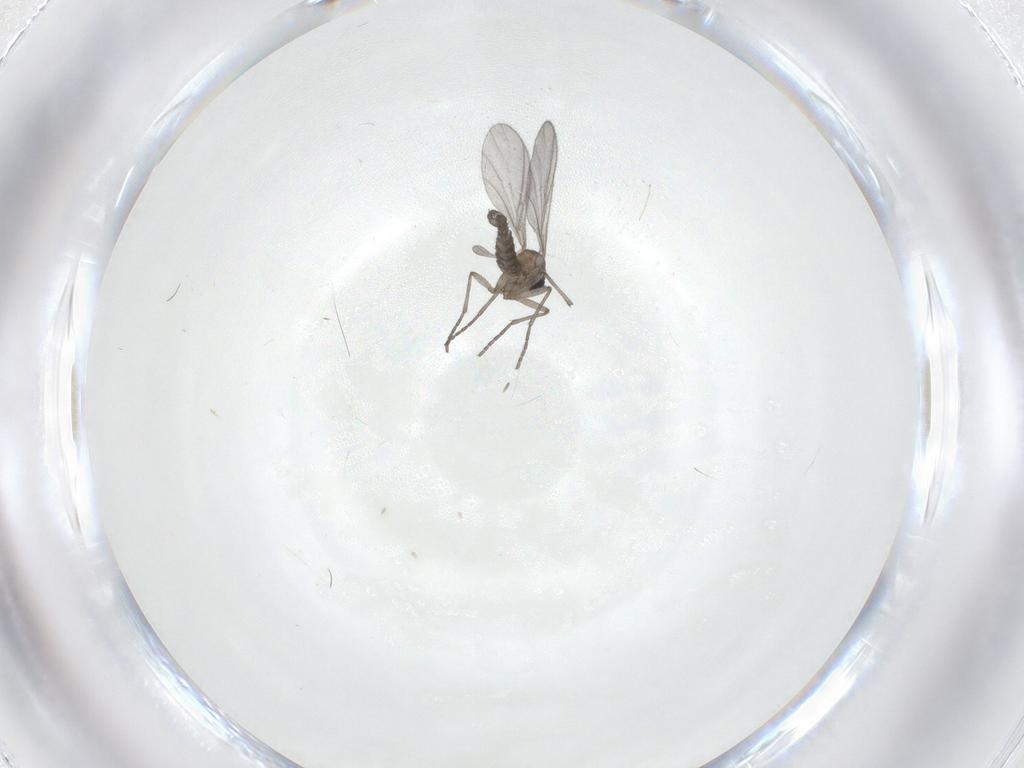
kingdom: Animalia
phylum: Arthropoda
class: Insecta
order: Diptera
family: Sciaridae
